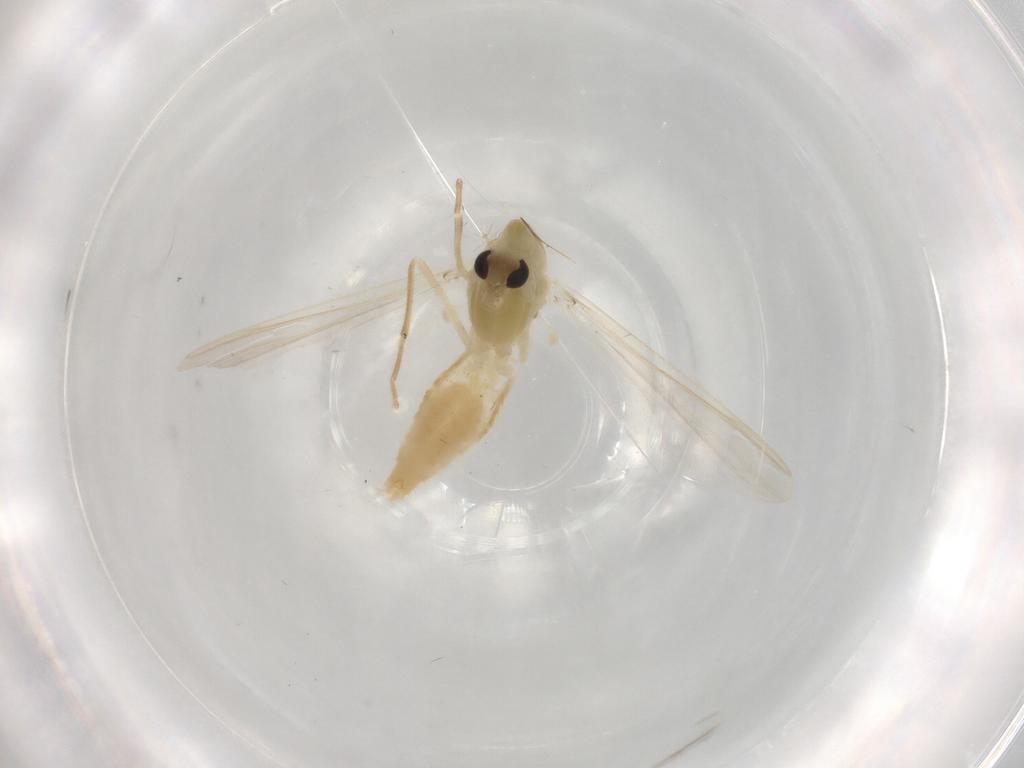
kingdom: Animalia
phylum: Arthropoda
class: Insecta
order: Diptera
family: Chironomidae
